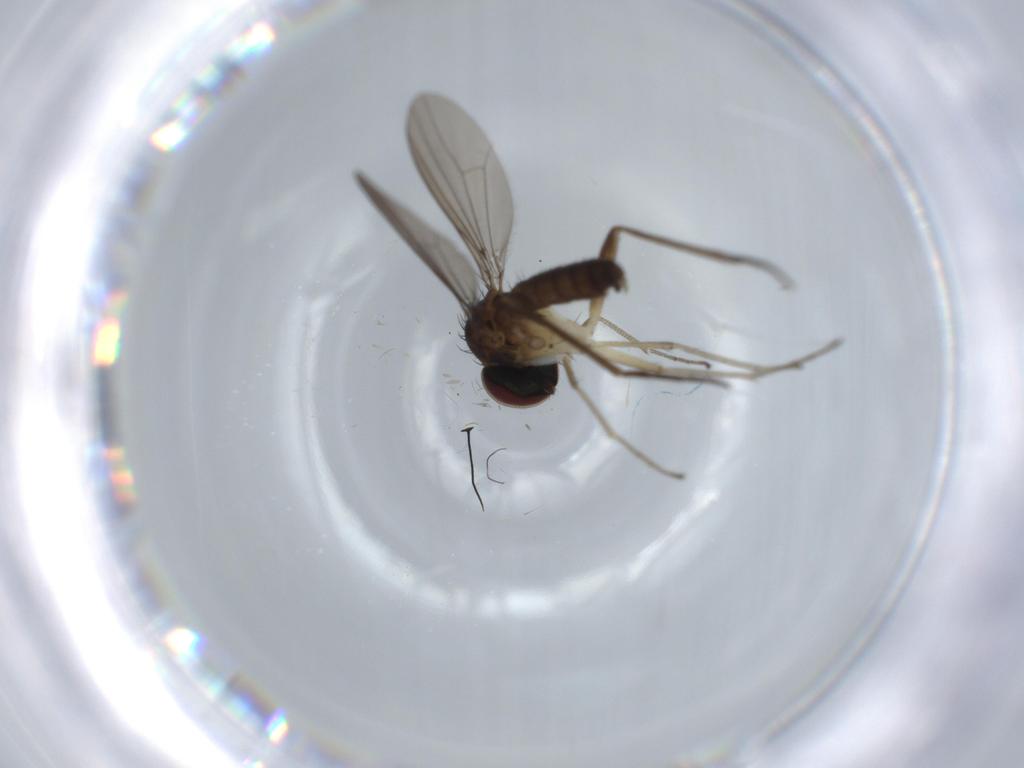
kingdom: Animalia
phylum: Arthropoda
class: Insecta
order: Diptera
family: Dolichopodidae
